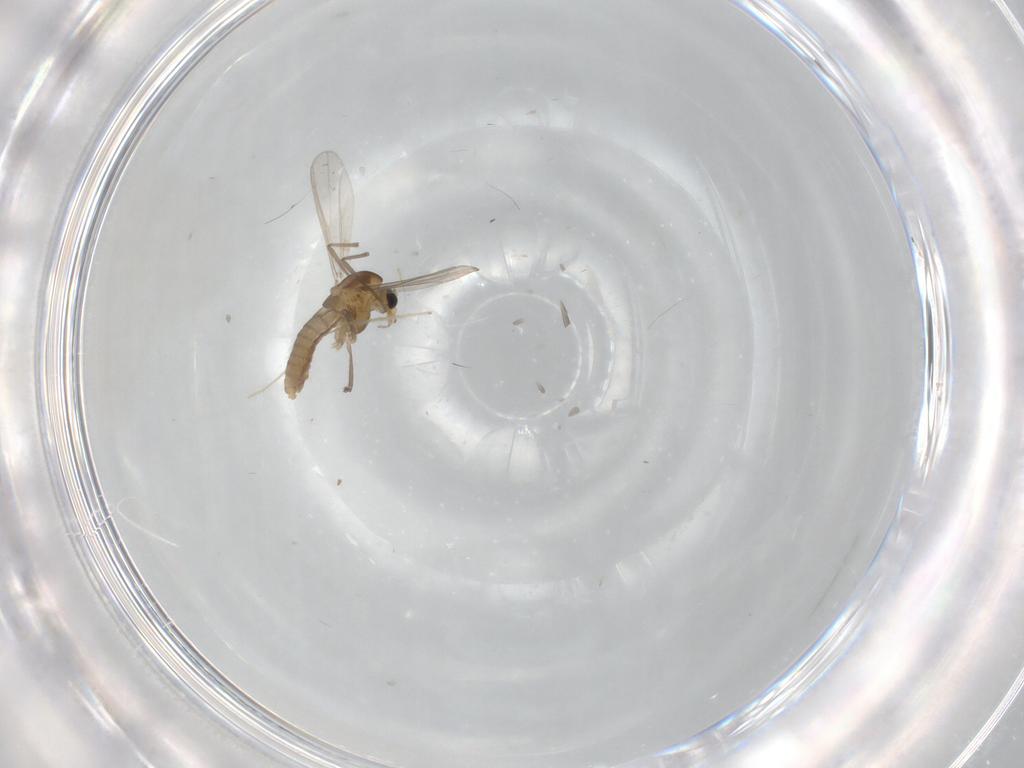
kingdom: Animalia
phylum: Arthropoda
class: Insecta
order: Diptera
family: Chironomidae
